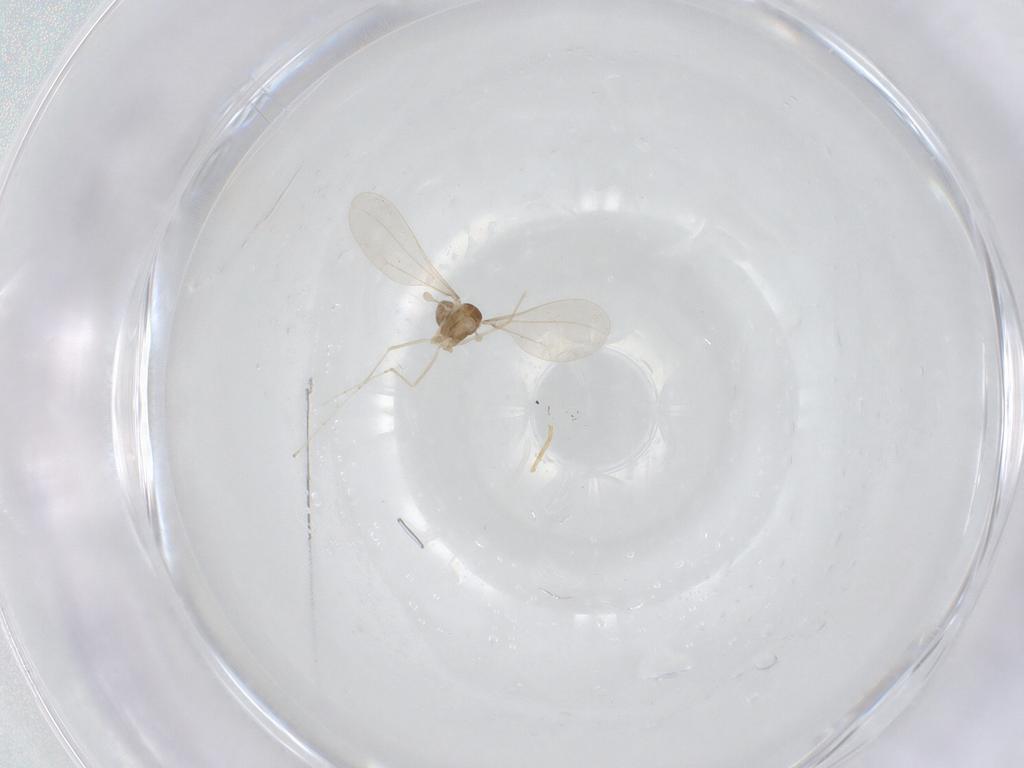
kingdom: Animalia
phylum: Arthropoda
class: Insecta
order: Diptera
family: Cecidomyiidae
